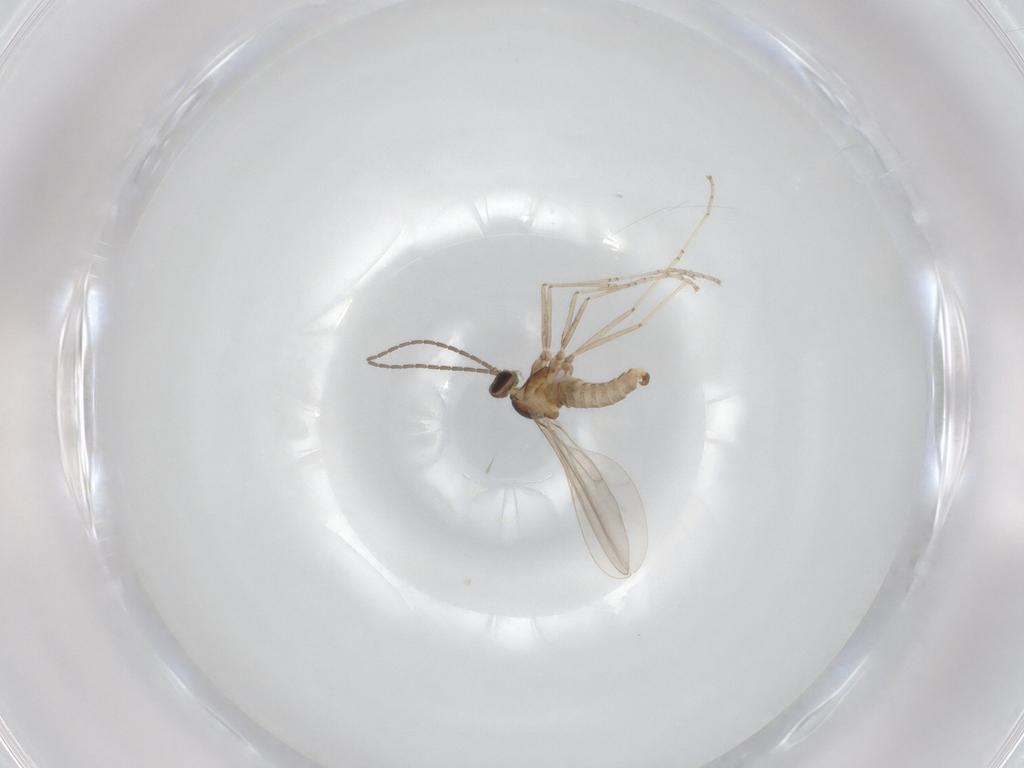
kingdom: Animalia
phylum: Arthropoda
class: Insecta
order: Diptera
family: Cecidomyiidae
